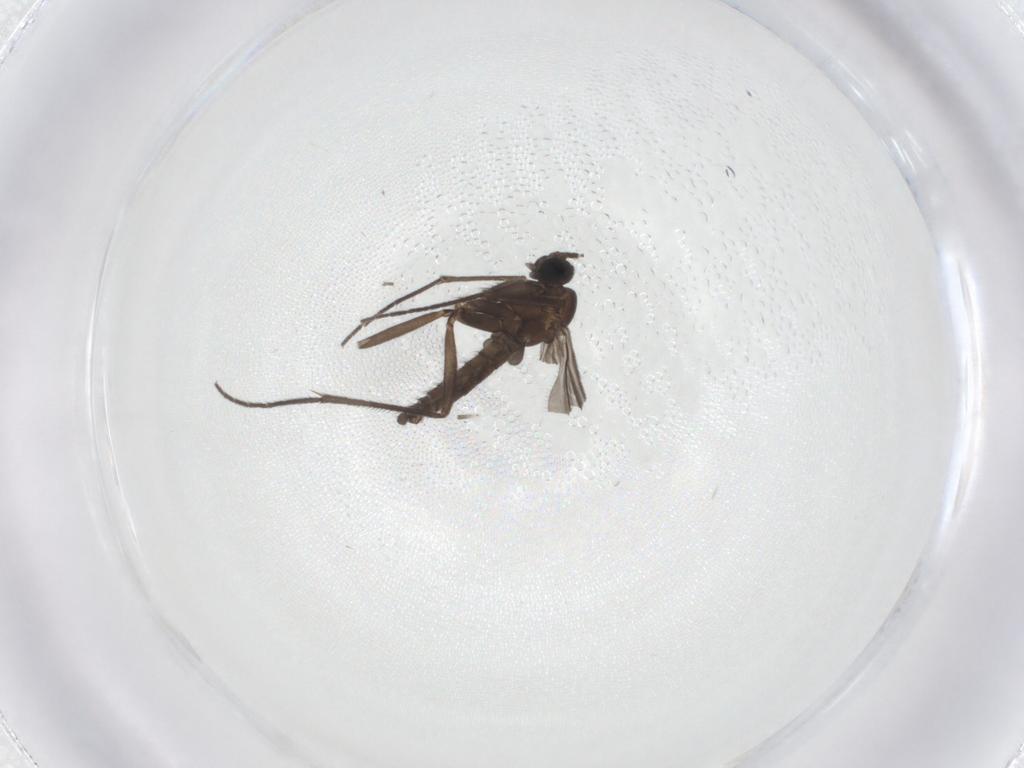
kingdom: Animalia
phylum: Arthropoda
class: Insecta
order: Diptera
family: Sciaridae
